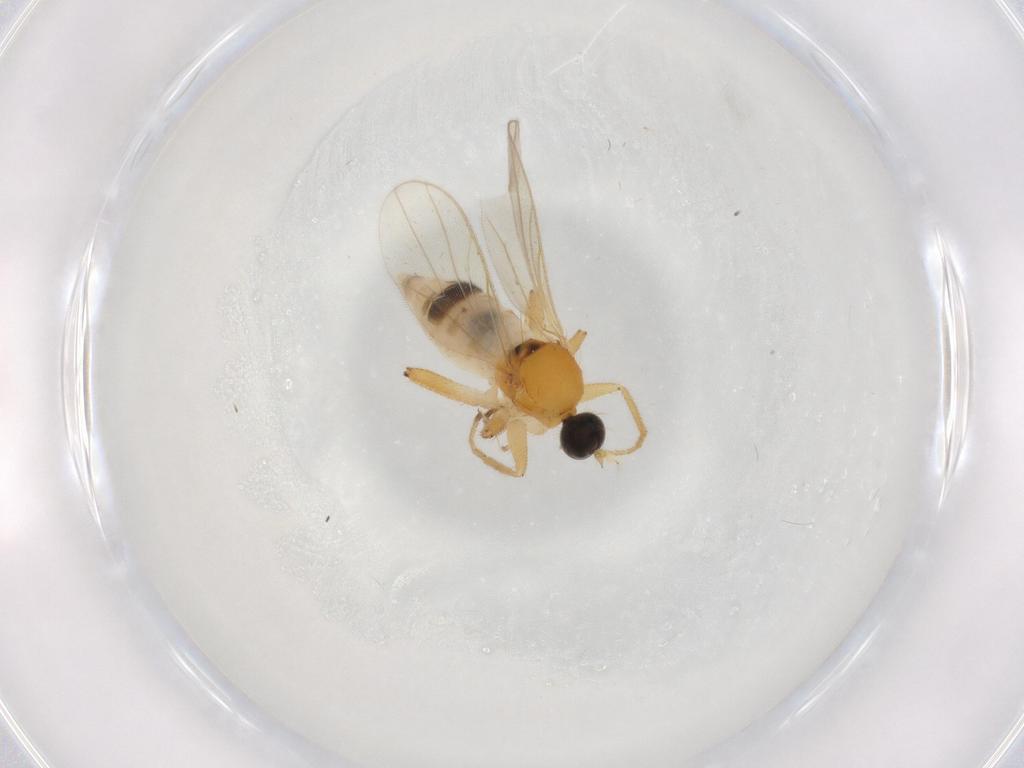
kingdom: Animalia
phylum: Arthropoda
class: Insecta
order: Diptera
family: Hybotidae
